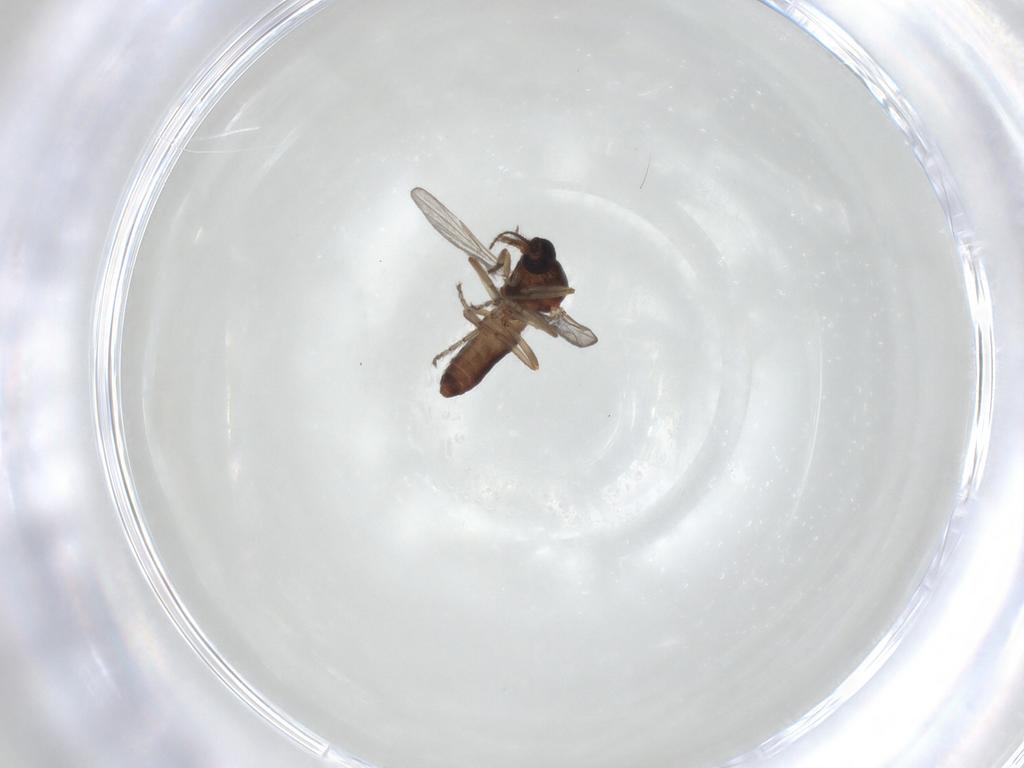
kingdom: Animalia
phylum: Arthropoda
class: Insecta
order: Diptera
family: Ceratopogonidae
